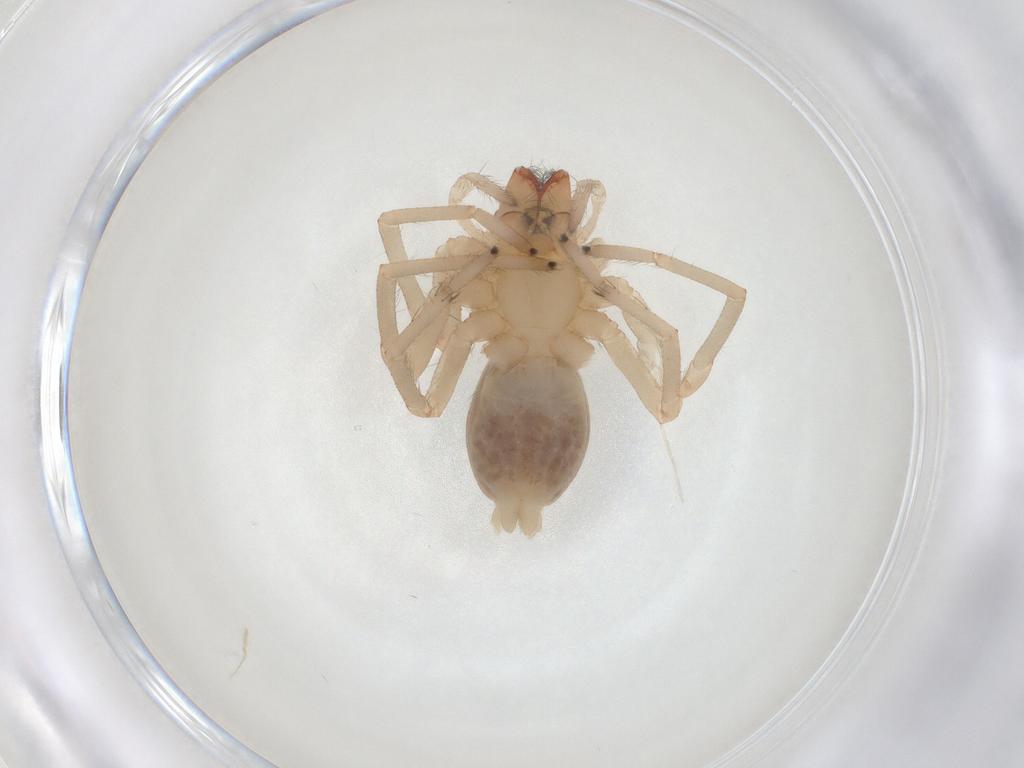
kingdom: Animalia
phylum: Arthropoda
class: Arachnida
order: Araneae
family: Cheiracanthiidae
